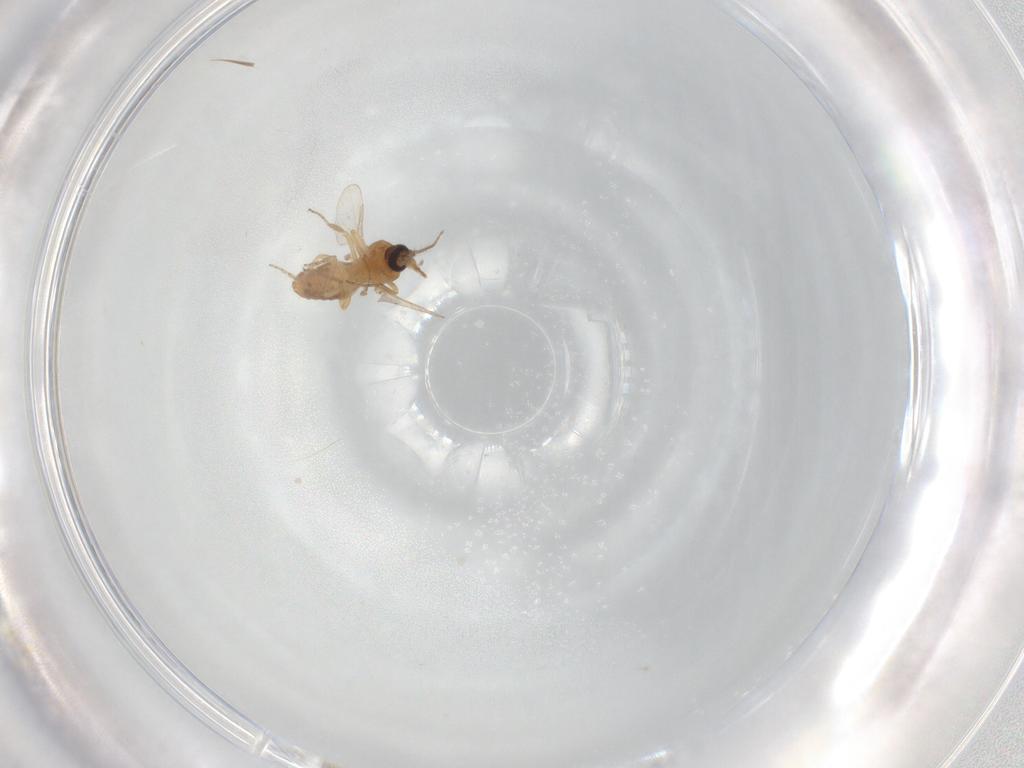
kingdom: Animalia
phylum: Arthropoda
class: Insecta
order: Diptera
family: Ceratopogonidae
